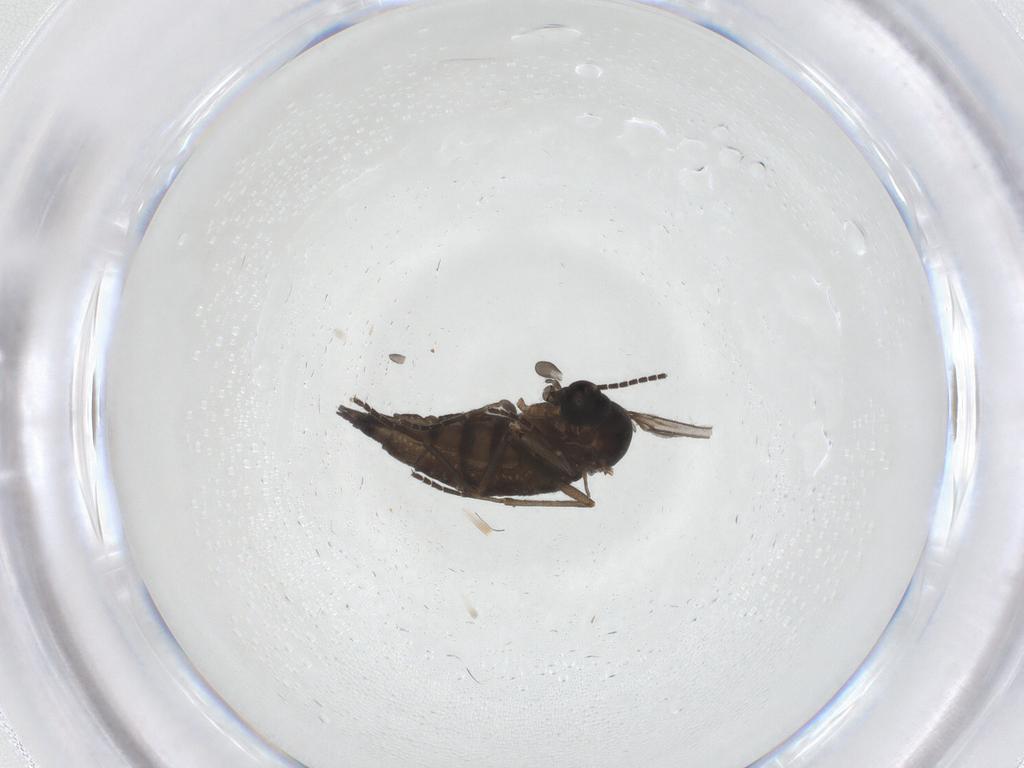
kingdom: Animalia
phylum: Arthropoda
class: Insecta
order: Diptera
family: Sciaridae
